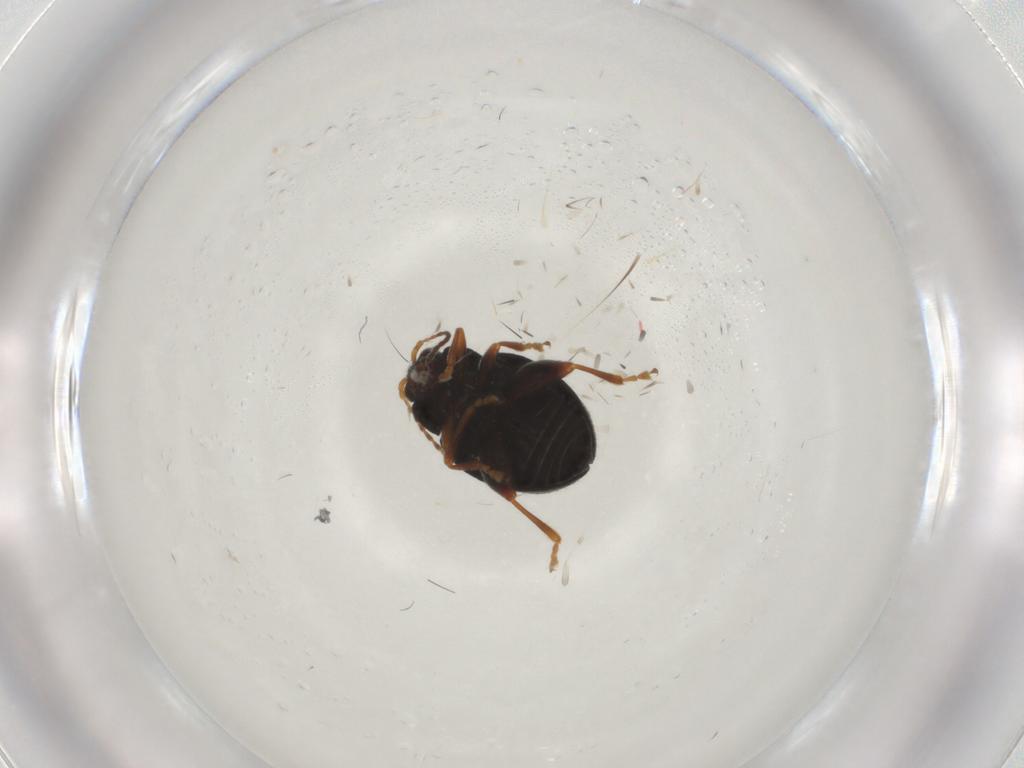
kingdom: Animalia
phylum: Arthropoda
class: Insecta
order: Coleoptera
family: Chrysomelidae
